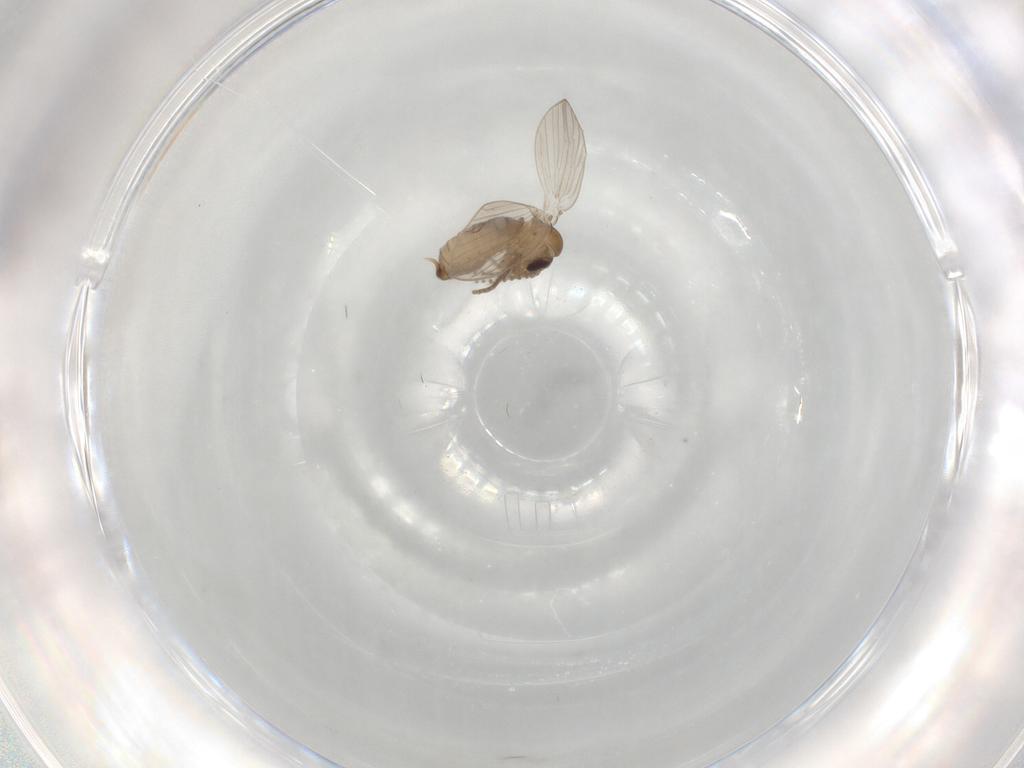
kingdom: Animalia
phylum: Arthropoda
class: Insecta
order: Diptera
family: Psychodidae
